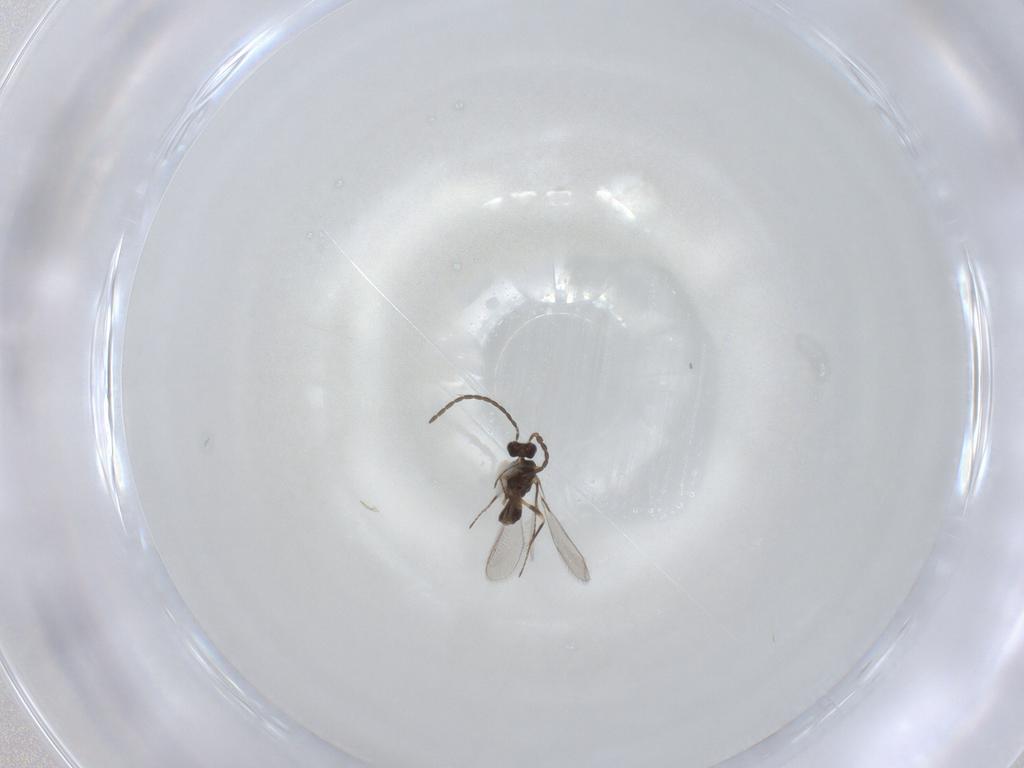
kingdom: Animalia
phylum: Arthropoda
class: Insecta
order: Hymenoptera
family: Mymaridae
